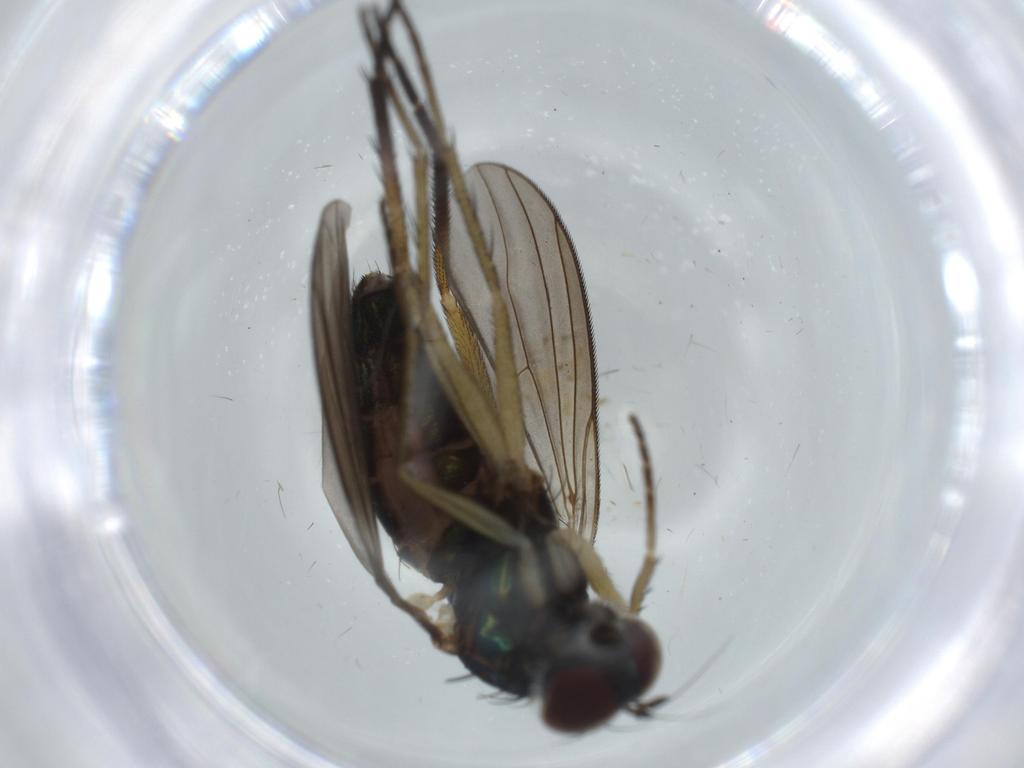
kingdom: Animalia
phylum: Arthropoda
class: Insecta
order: Diptera
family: Dolichopodidae
